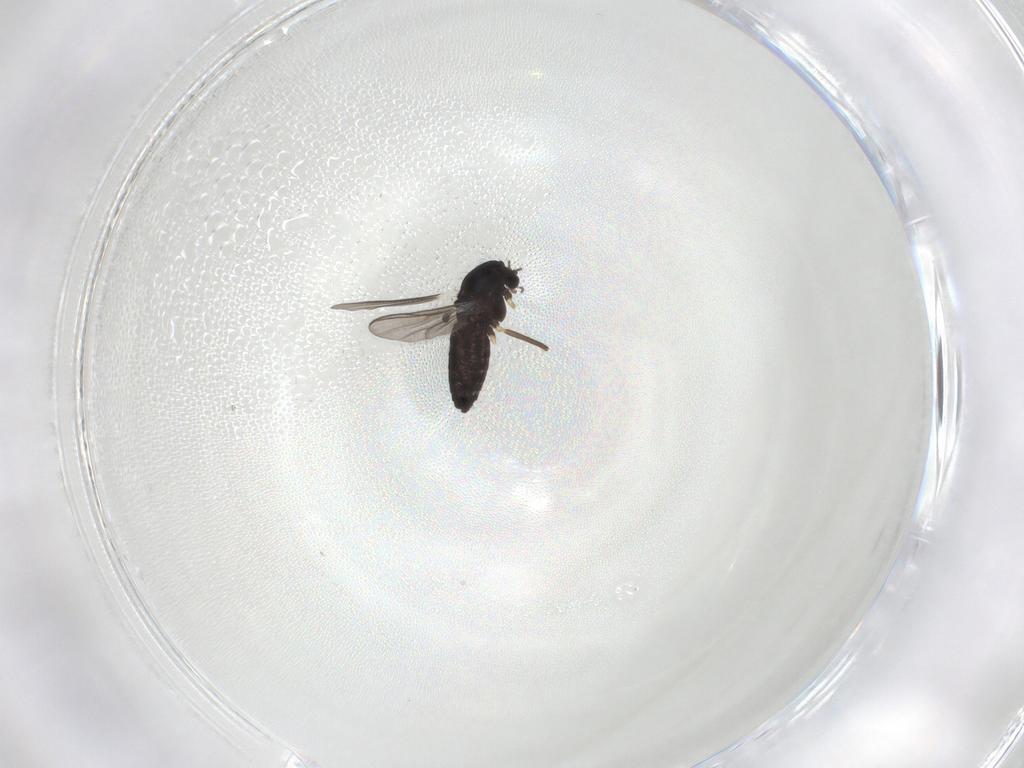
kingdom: Animalia
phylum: Arthropoda
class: Insecta
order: Diptera
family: Chironomidae
